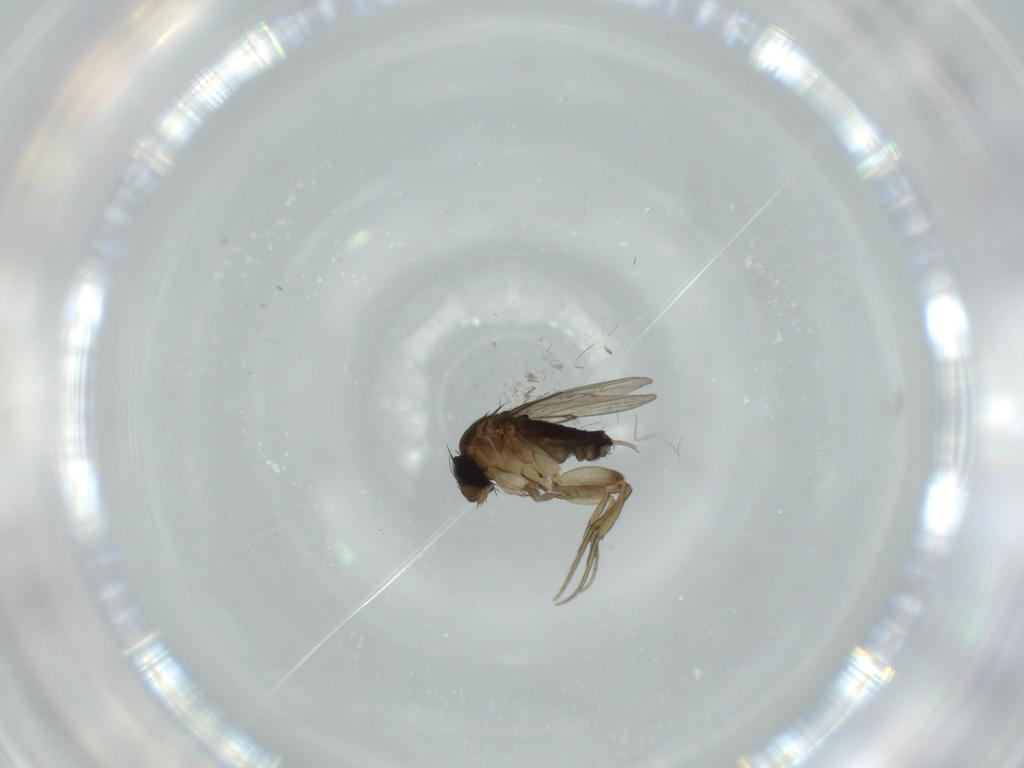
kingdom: Animalia
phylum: Arthropoda
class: Insecta
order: Diptera
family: Phoridae
